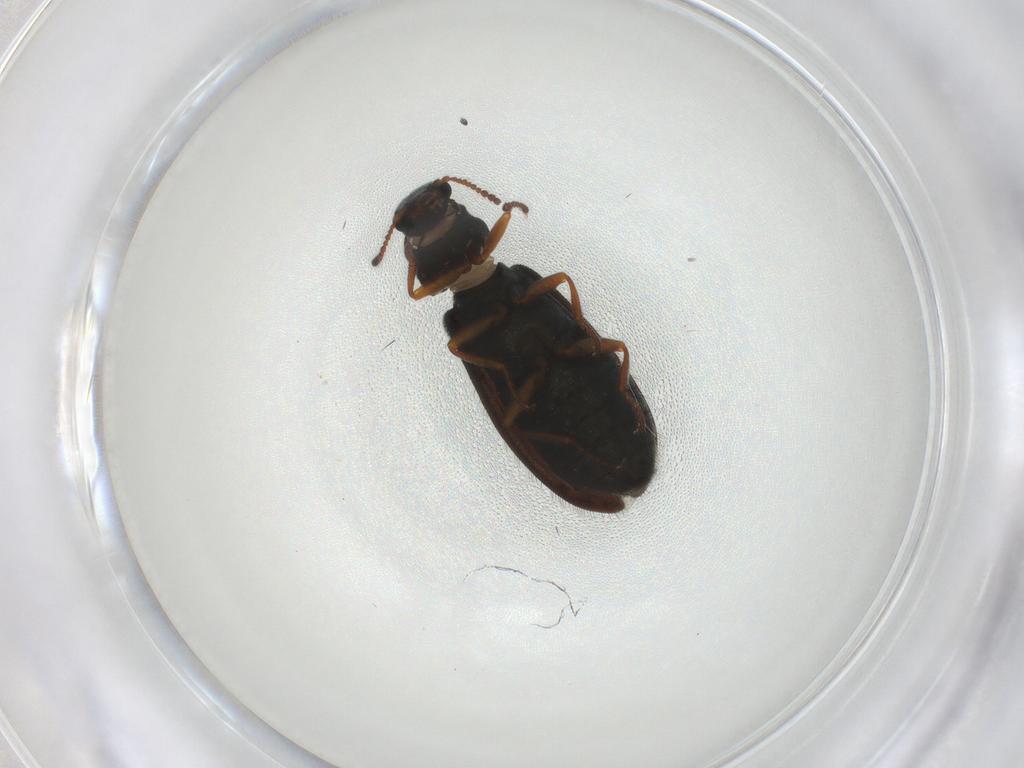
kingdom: Animalia
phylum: Arthropoda
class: Insecta
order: Coleoptera
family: Melyridae
